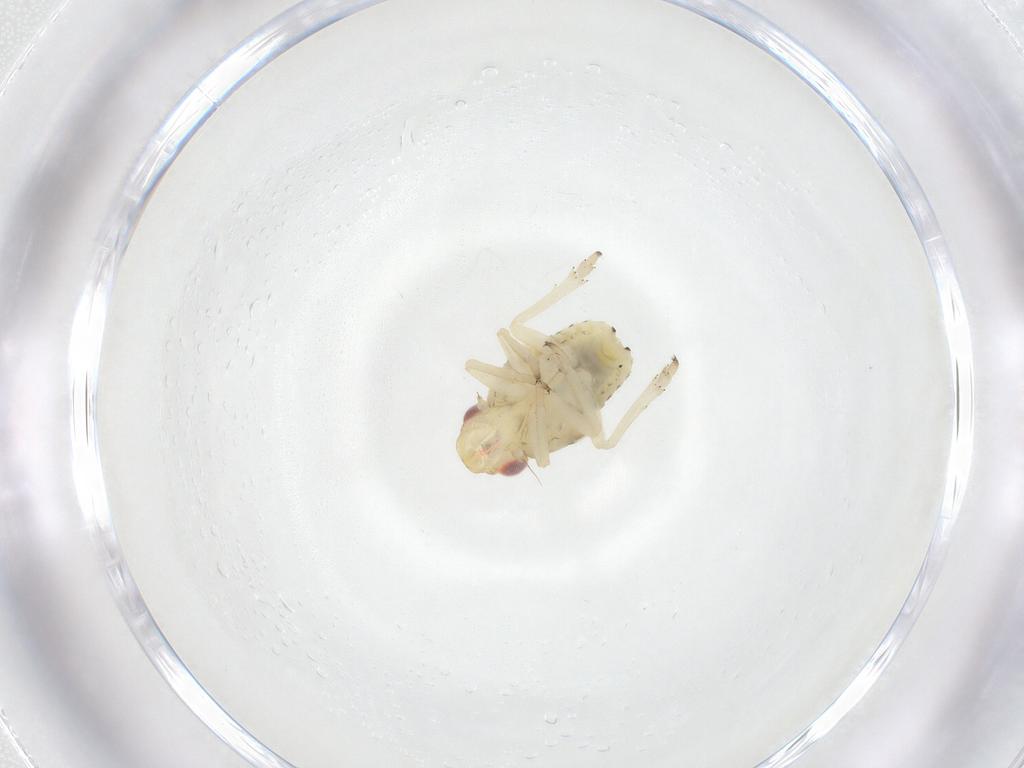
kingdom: Animalia
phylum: Arthropoda
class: Insecta
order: Hemiptera
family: Caliscelidae
